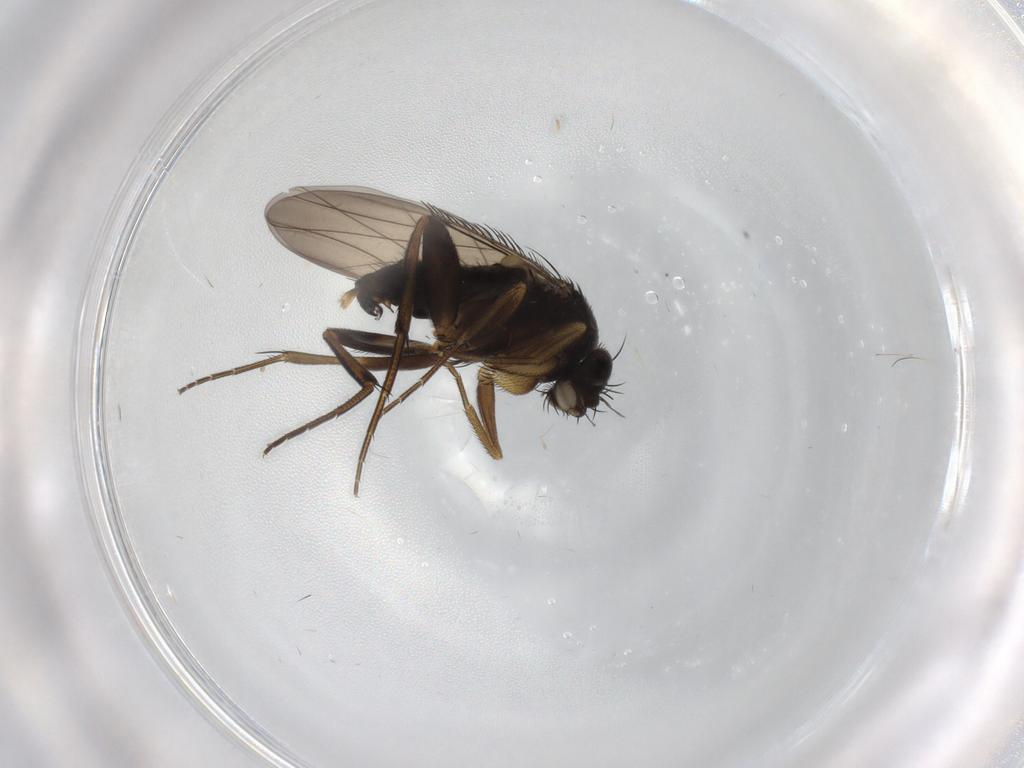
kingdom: Animalia
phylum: Arthropoda
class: Insecta
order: Diptera
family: Phoridae
